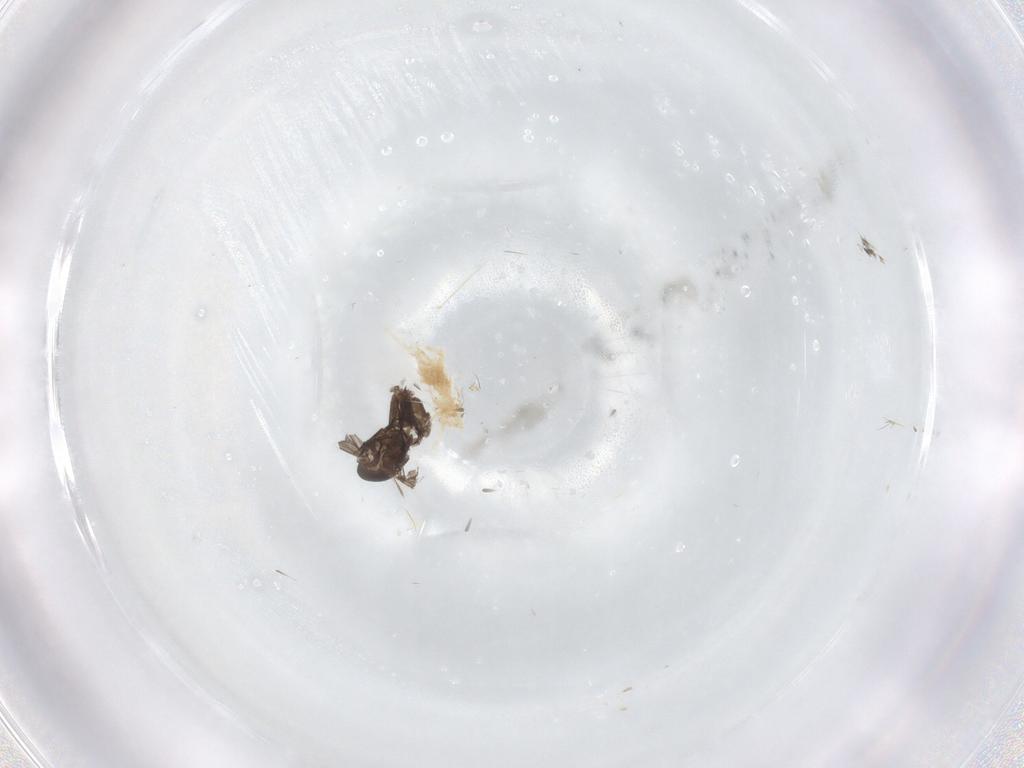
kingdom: Animalia
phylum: Arthropoda
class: Insecta
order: Diptera
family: Psychodidae
